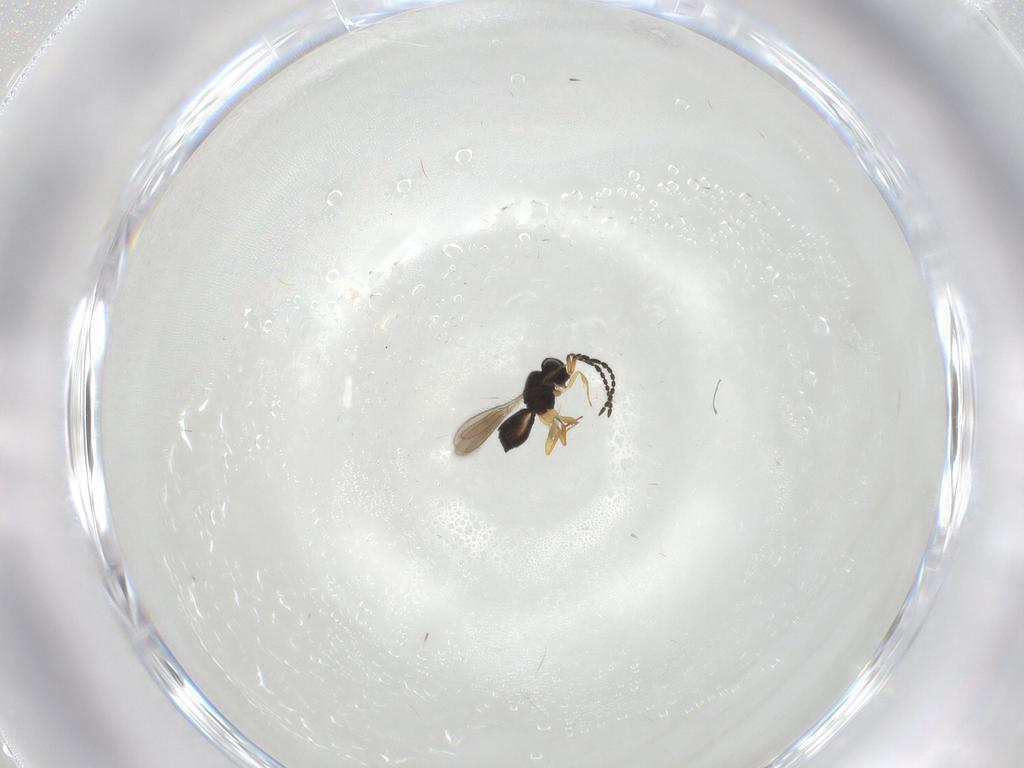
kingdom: Animalia
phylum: Arthropoda
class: Insecta
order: Hymenoptera
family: Scelionidae
